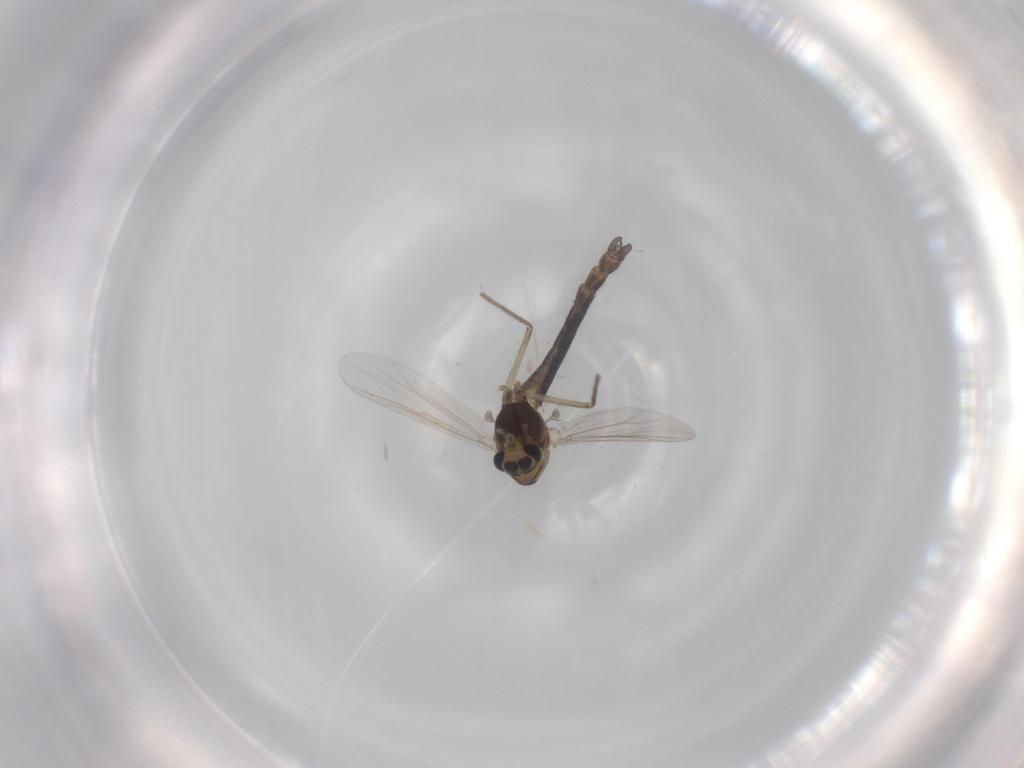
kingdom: Animalia
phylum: Arthropoda
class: Insecta
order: Diptera
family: Chironomidae
